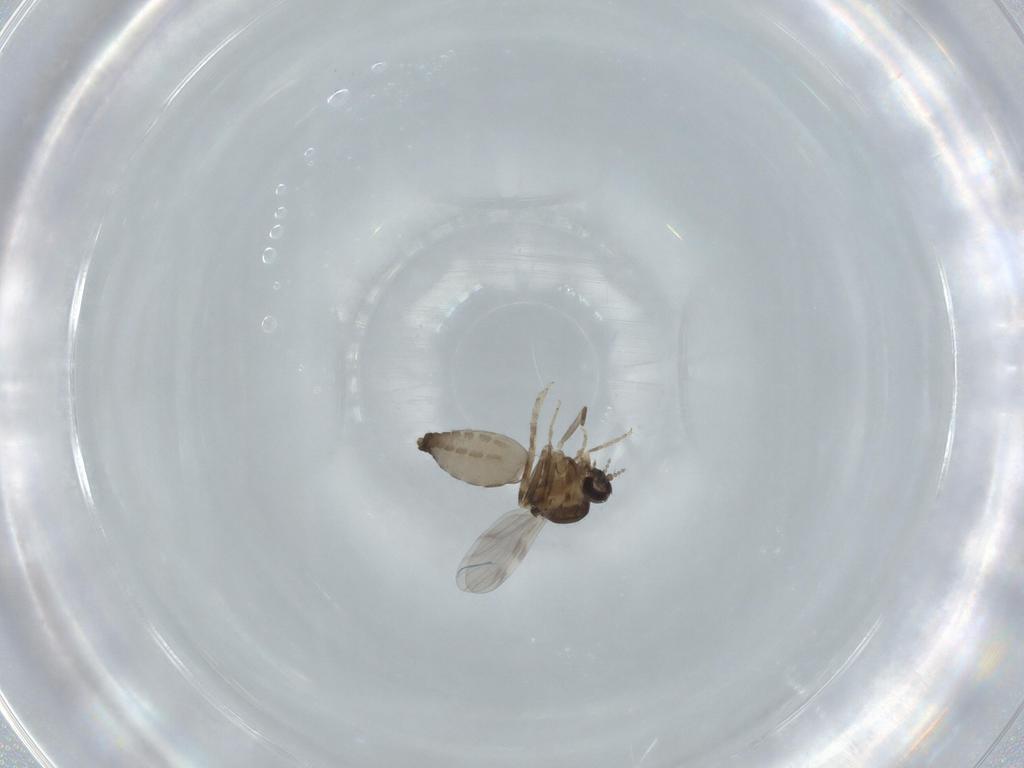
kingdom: Animalia
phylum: Arthropoda
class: Insecta
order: Diptera
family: Ceratopogonidae
